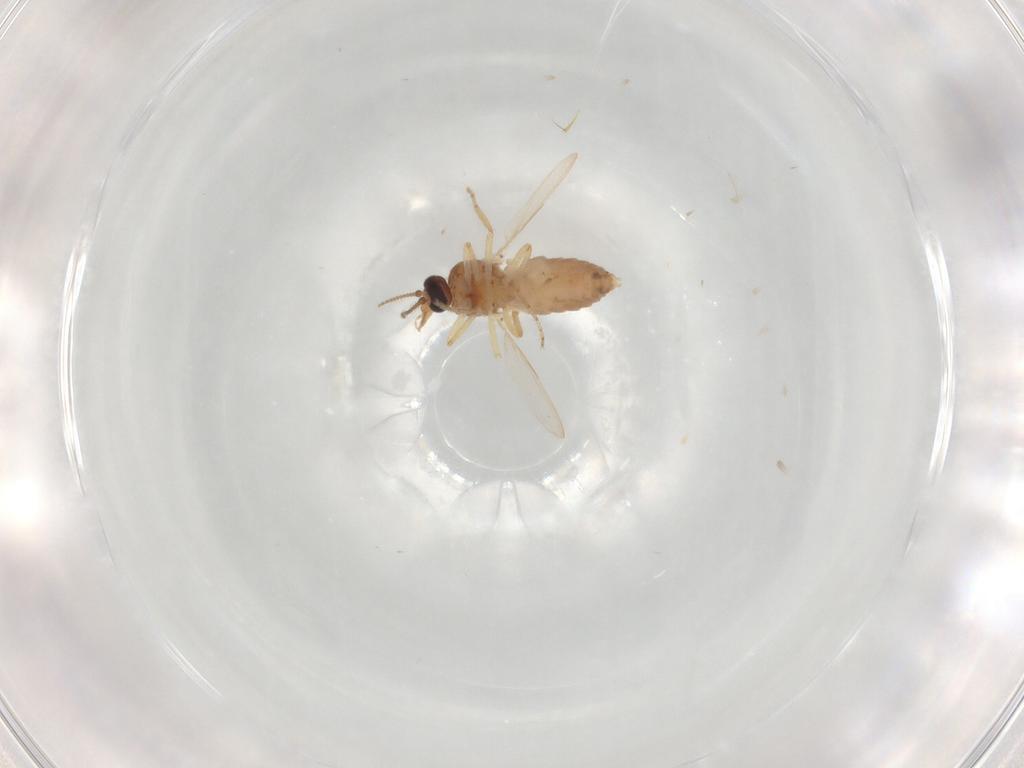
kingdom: Animalia
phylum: Arthropoda
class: Insecta
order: Diptera
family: Ceratopogonidae
